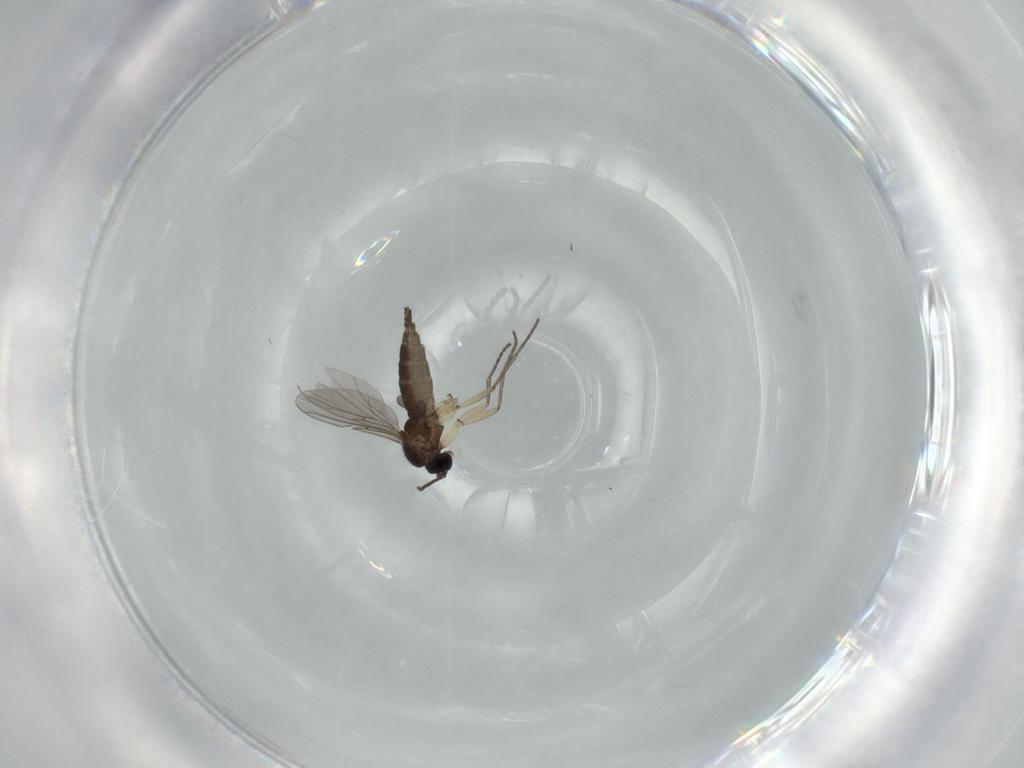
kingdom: Animalia
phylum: Arthropoda
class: Insecta
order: Diptera
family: Sciaridae
